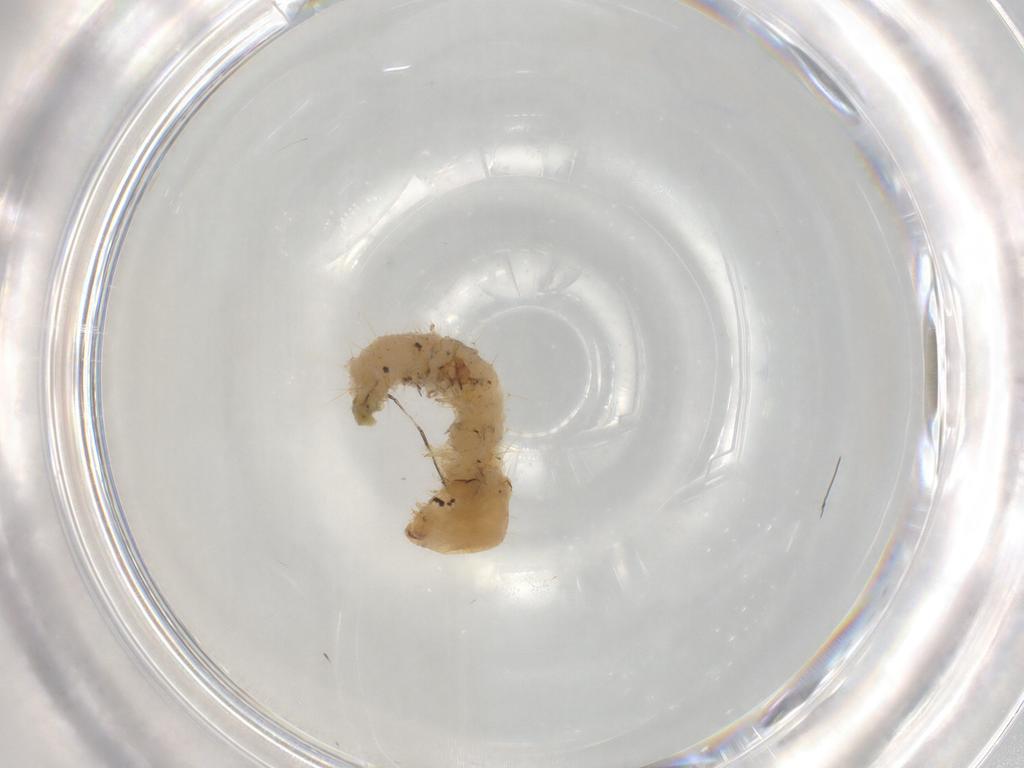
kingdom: Animalia
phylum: Arthropoda
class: Insecta
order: Lepidoptera
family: Crambidae
